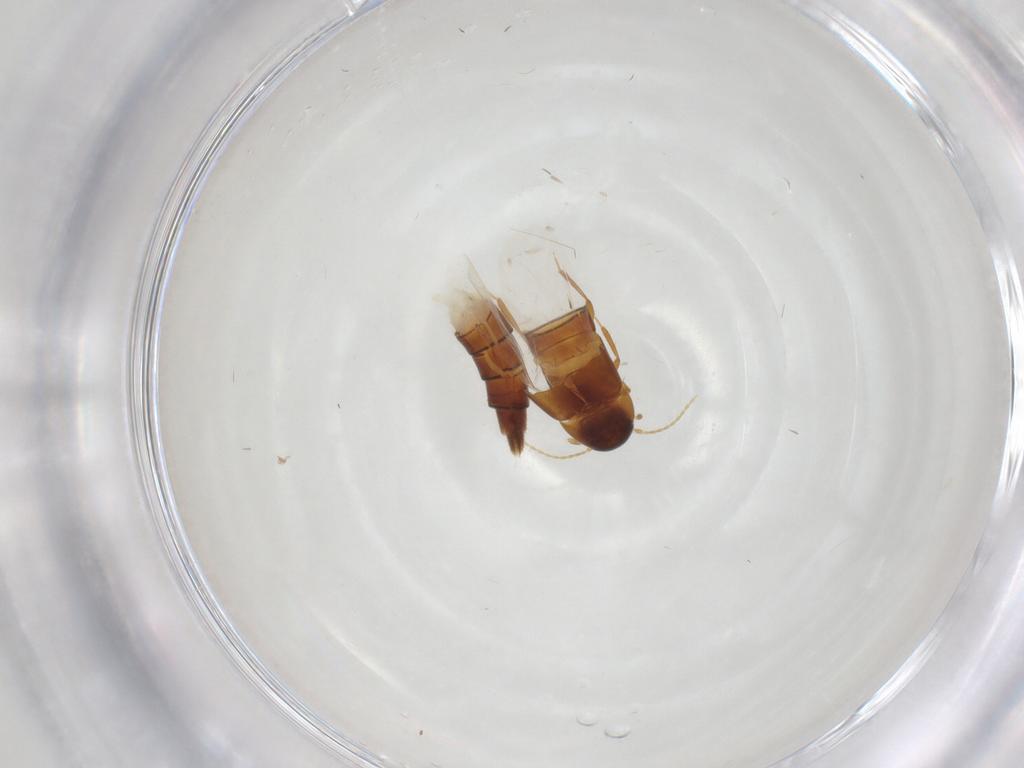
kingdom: Animalia
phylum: Arthropoda
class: Insecta
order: Coleoptera
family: Staphylinidae
